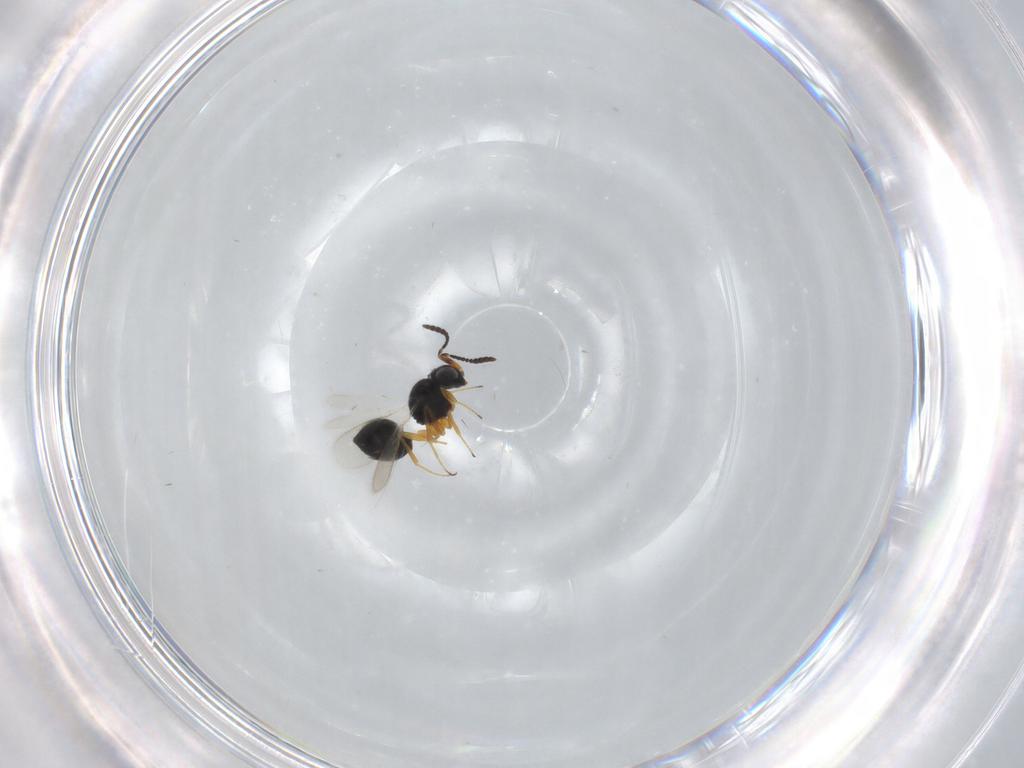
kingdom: Animalia
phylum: Arthropoda
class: Insecta
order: Hymenoptera
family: Scelionidae
